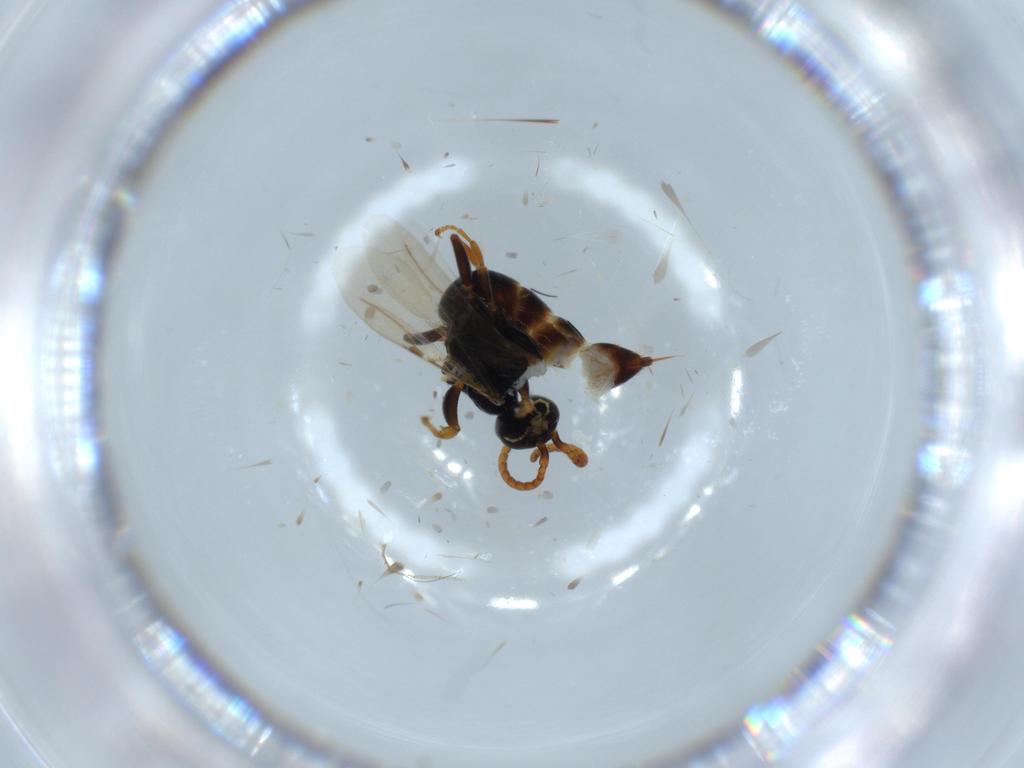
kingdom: Animalia
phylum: Arthropoda
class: Insecta
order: Hymenoptera
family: Bethylidae
